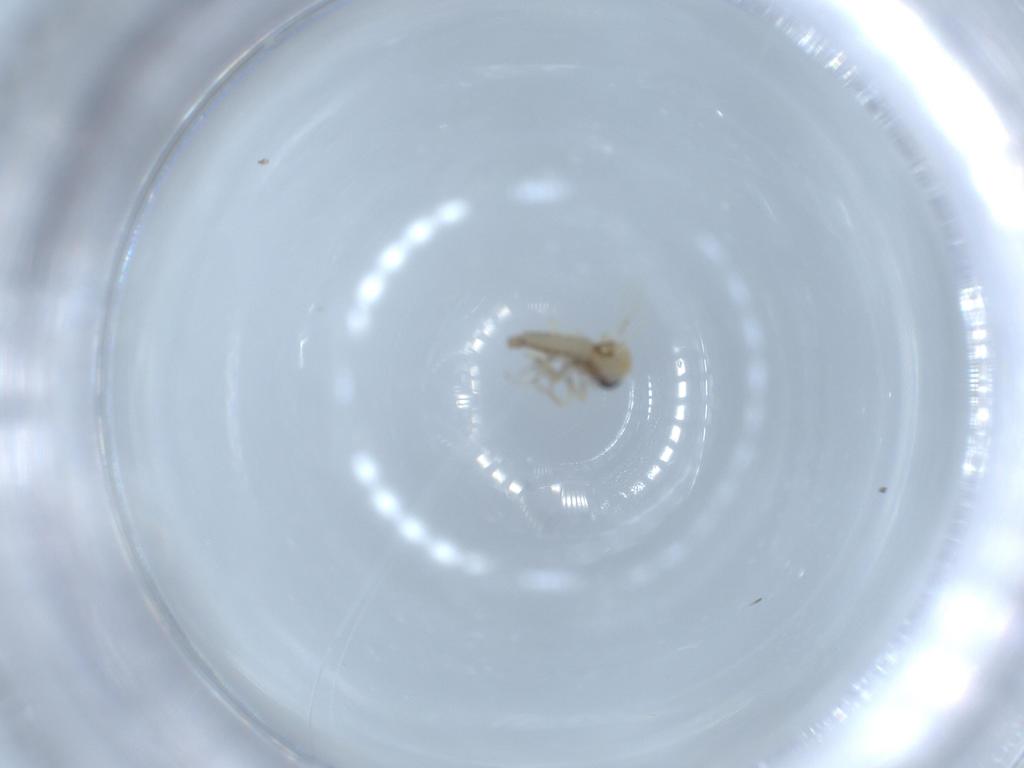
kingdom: Animalia
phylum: Arthropoda
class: Insecta
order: Diptera
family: Ceratopogonidae
